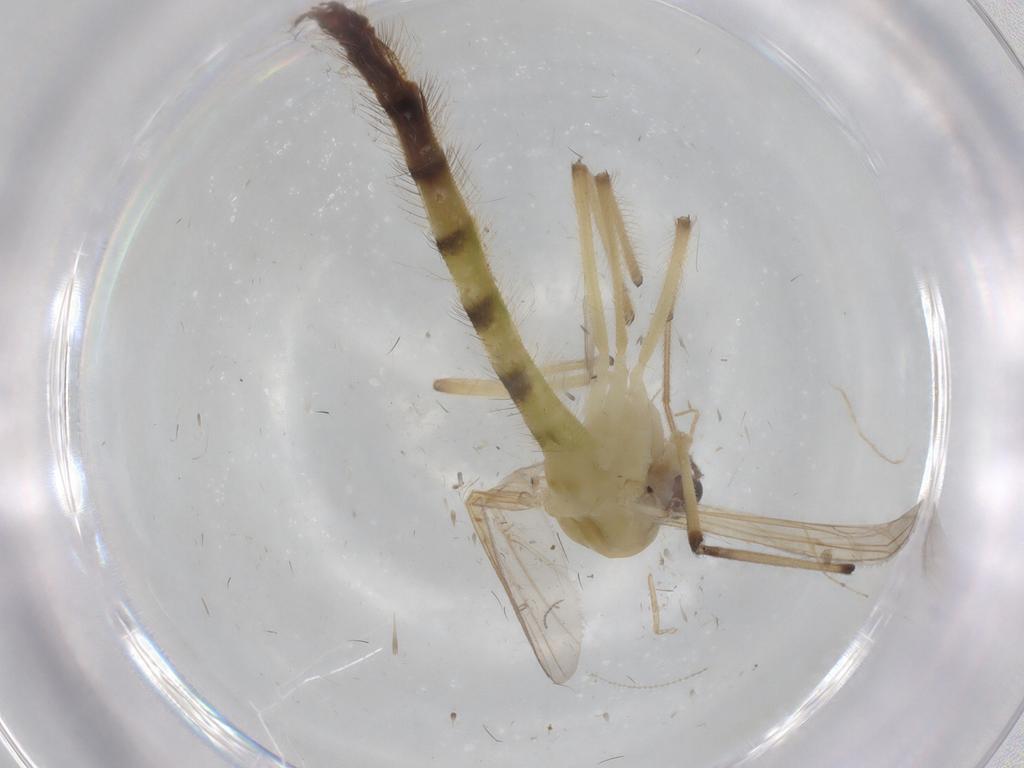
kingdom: Animalia
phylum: Arthropoda
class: Insecta
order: Diptera
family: Chironomidae
